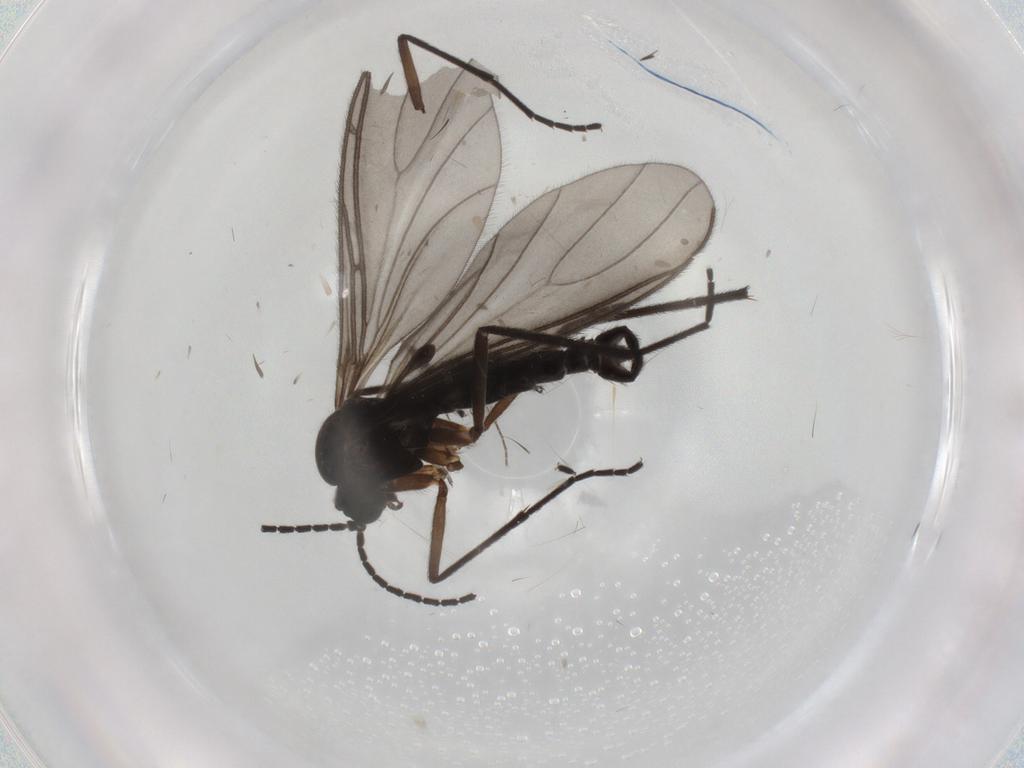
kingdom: Animalia
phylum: Arthropoda
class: Insecta
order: Diptera
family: Sciaridae
